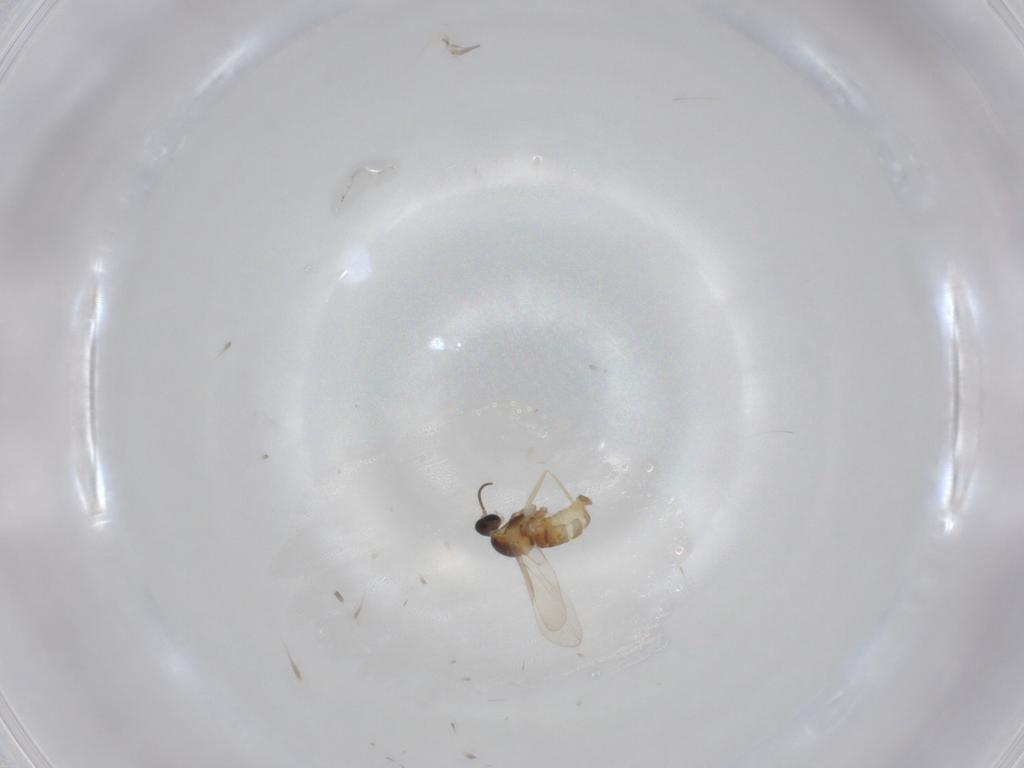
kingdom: Animalia
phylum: Arthropoda
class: Insecta
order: Diptera
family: Cecidomyiidae
